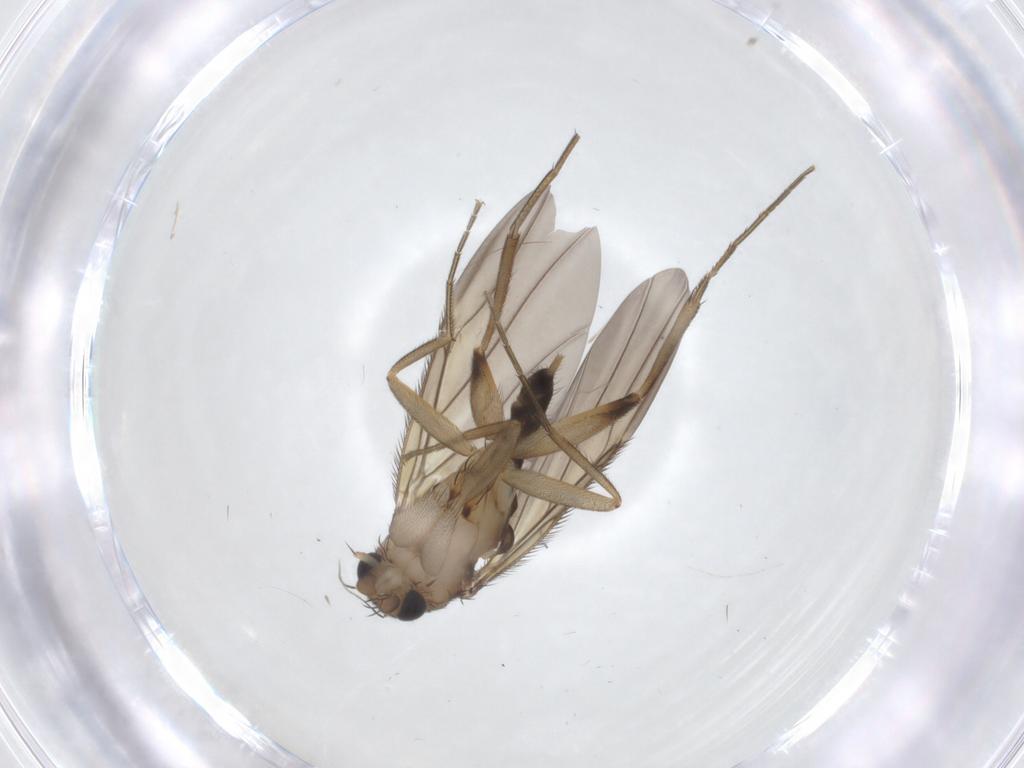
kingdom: Animalia
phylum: Arthropoda
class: Insecta
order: Diptera
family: Phoridae
